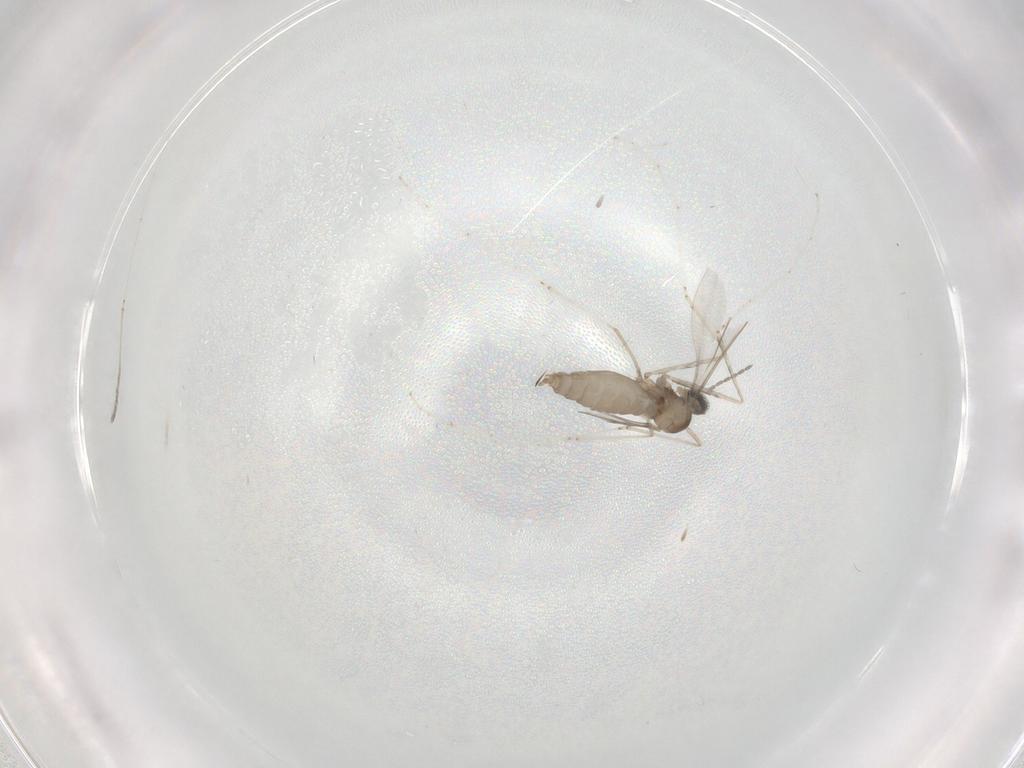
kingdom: Animalia
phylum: Arthropoda
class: Insecta
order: Diptera
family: Cecidomyiidae
